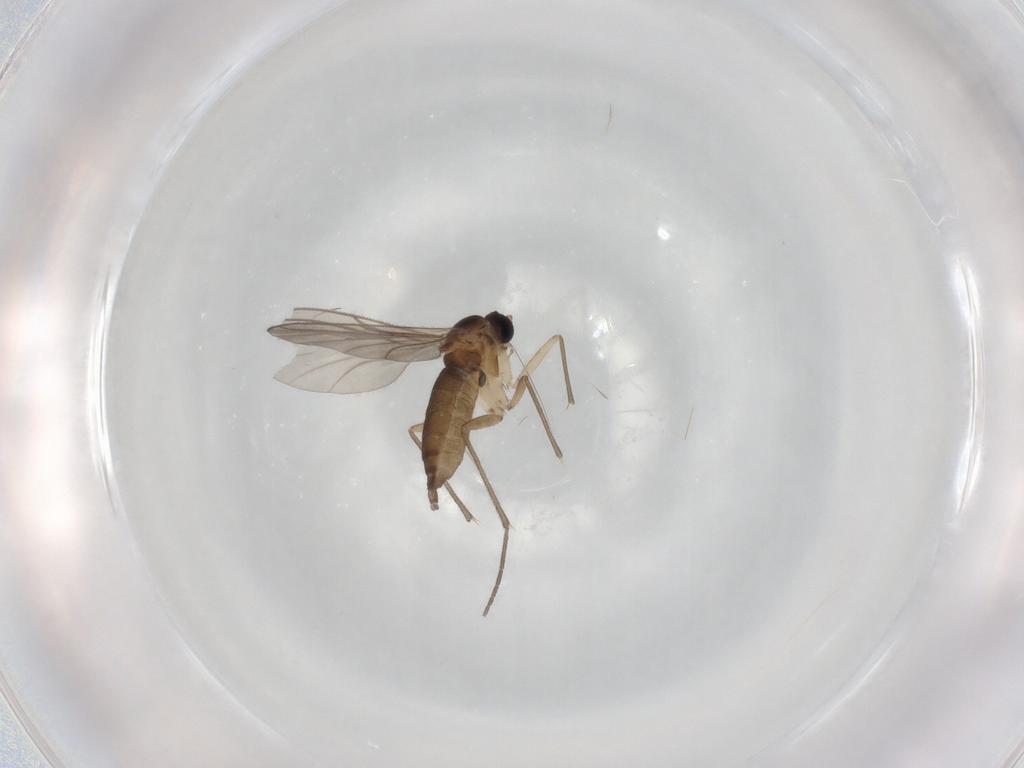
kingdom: Animalia
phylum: Arthropoda
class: Insecta
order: Diptera
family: Sciaridae
